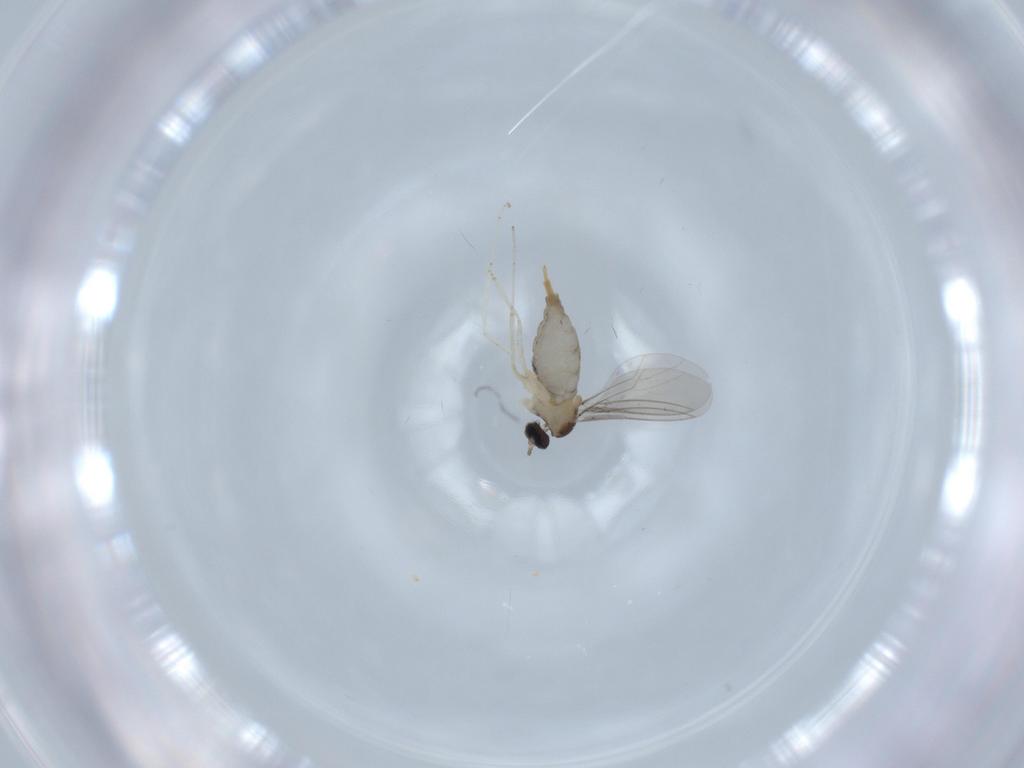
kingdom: Animalia
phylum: Arthropoda
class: Insecta
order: Diptera
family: Cecidomyiidae
